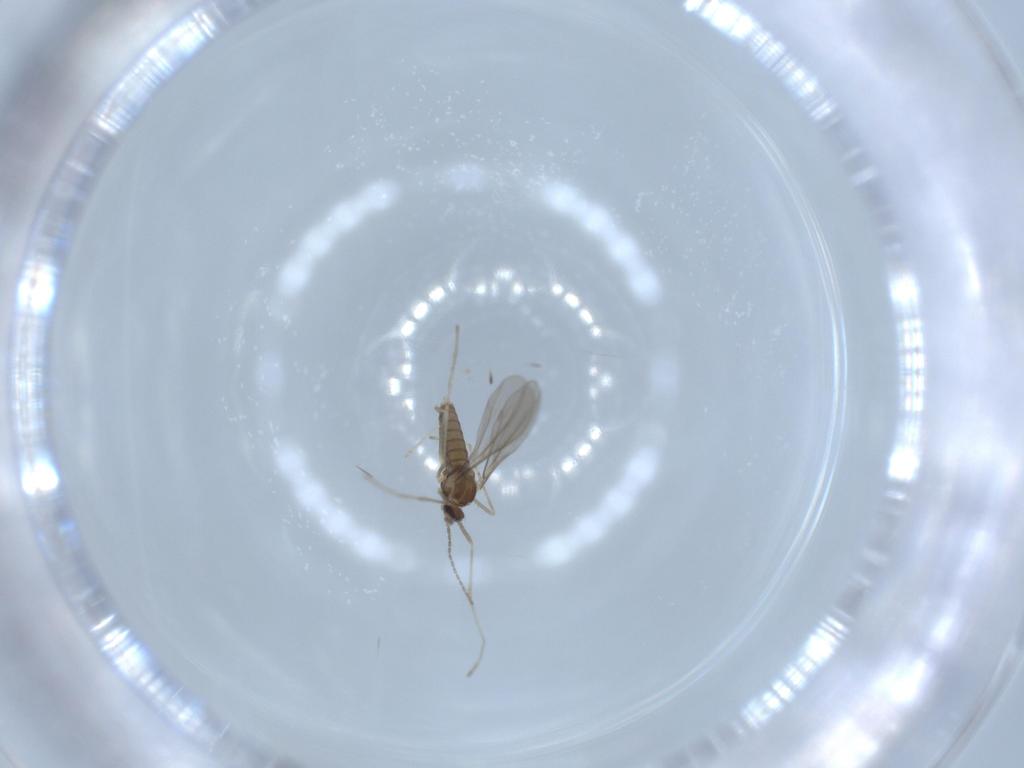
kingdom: Animalia
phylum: Arthropoda
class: Insecta
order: Diptera
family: Cecidomyiidae
